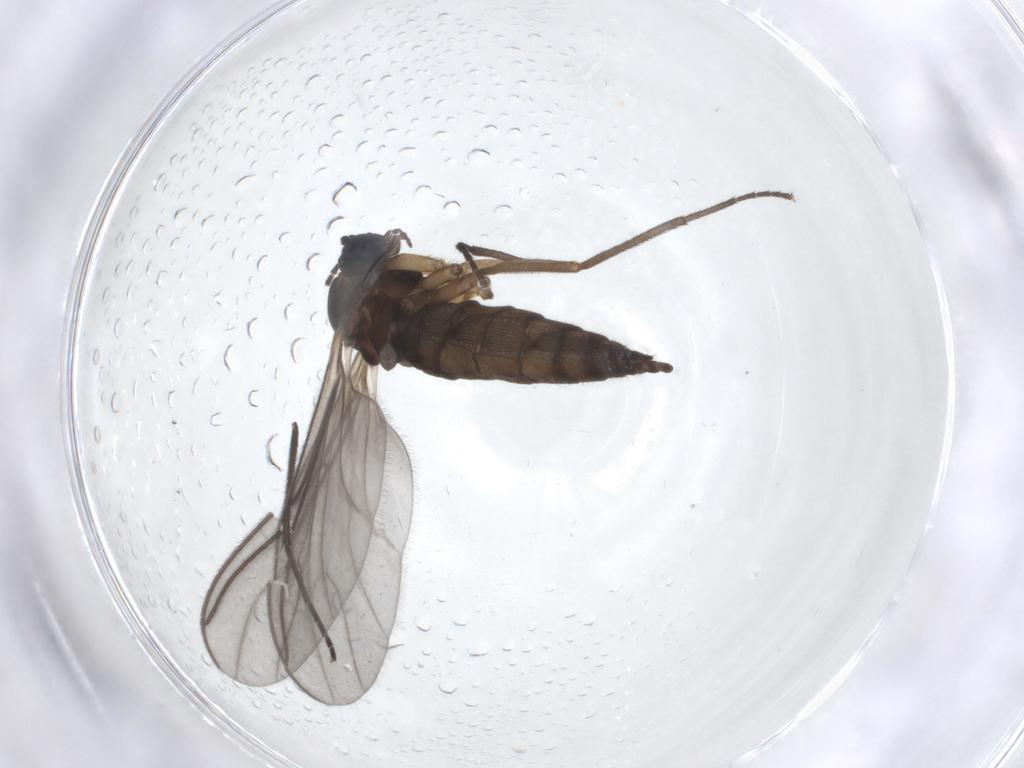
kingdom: Animalia
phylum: Arthropoda
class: Insecta
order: Diptera
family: Sciaridae
